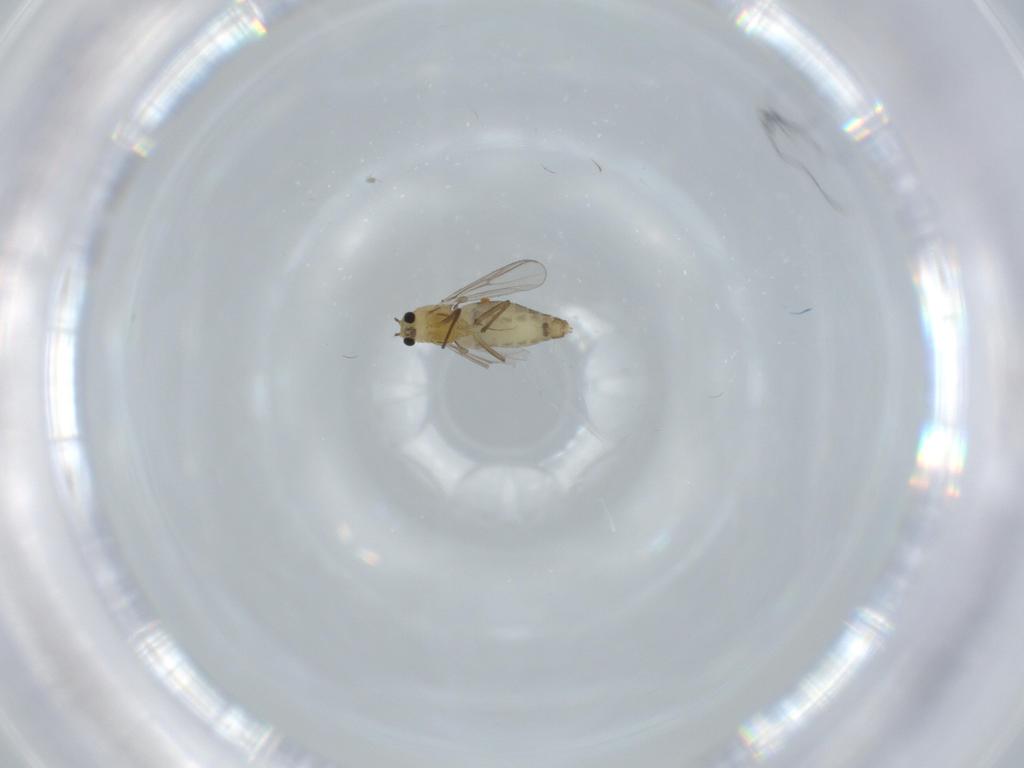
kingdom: Animalia
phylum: Arthropoda
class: Insecta
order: Diptera
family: Chironomidae
